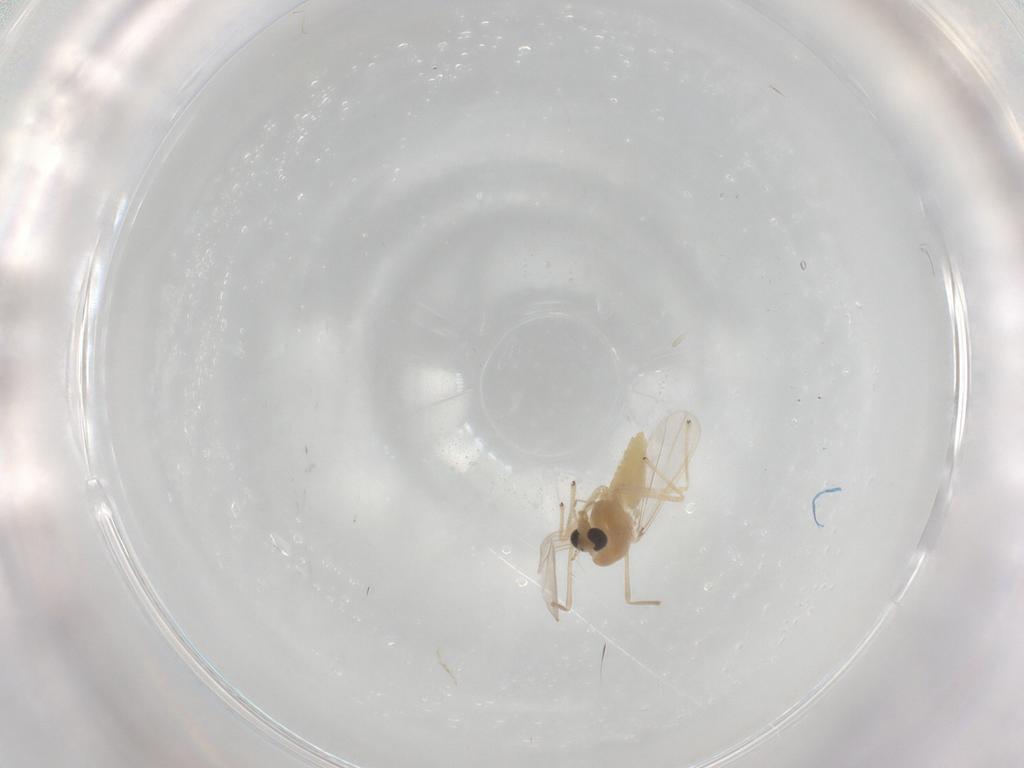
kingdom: Animalia
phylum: Arthropoda
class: Insecta
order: Diptera
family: Chironomidae
